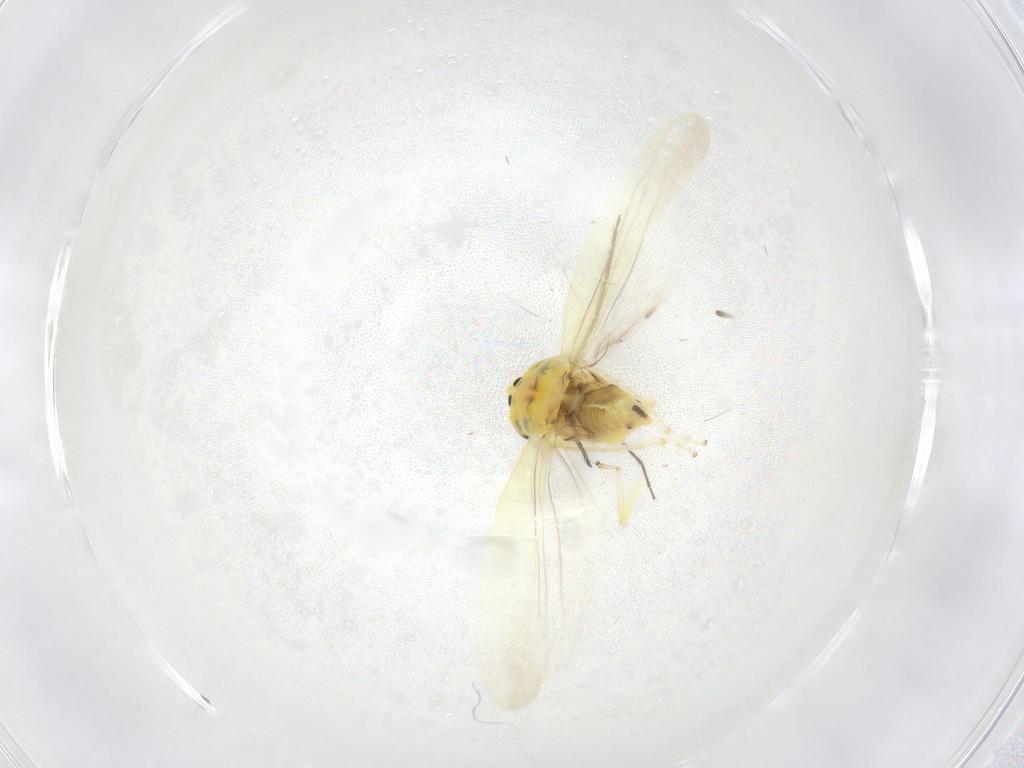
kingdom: Animalia
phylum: Arthropoda
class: Insecta
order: Hemiptera
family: Cicadellidae
